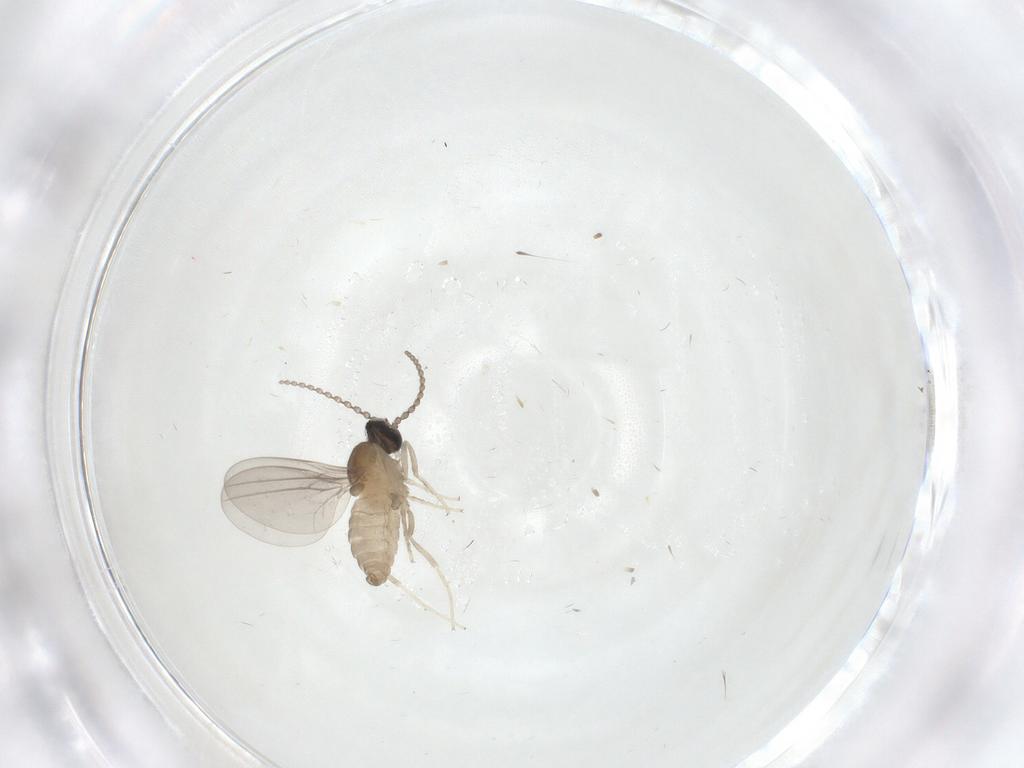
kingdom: Animalia
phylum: Arthropoda
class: Insecta
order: Diptera
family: Cecidomyiidae
